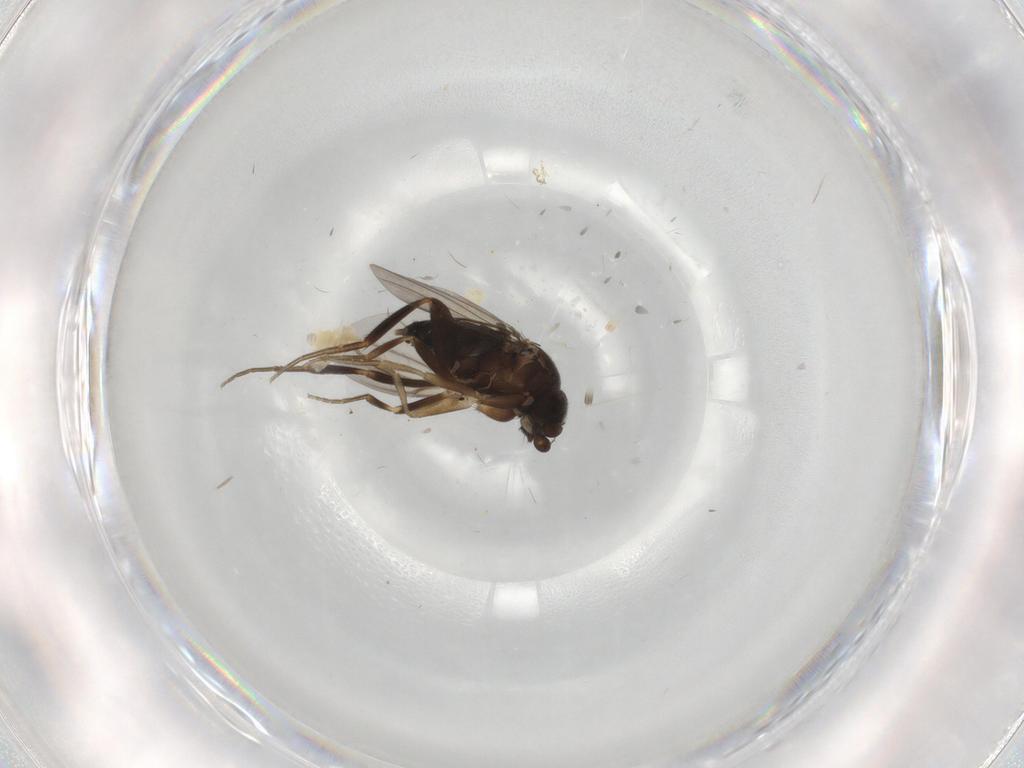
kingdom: Animalia
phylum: Arthropoda
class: Insecta
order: Diptera
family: Phoridae
